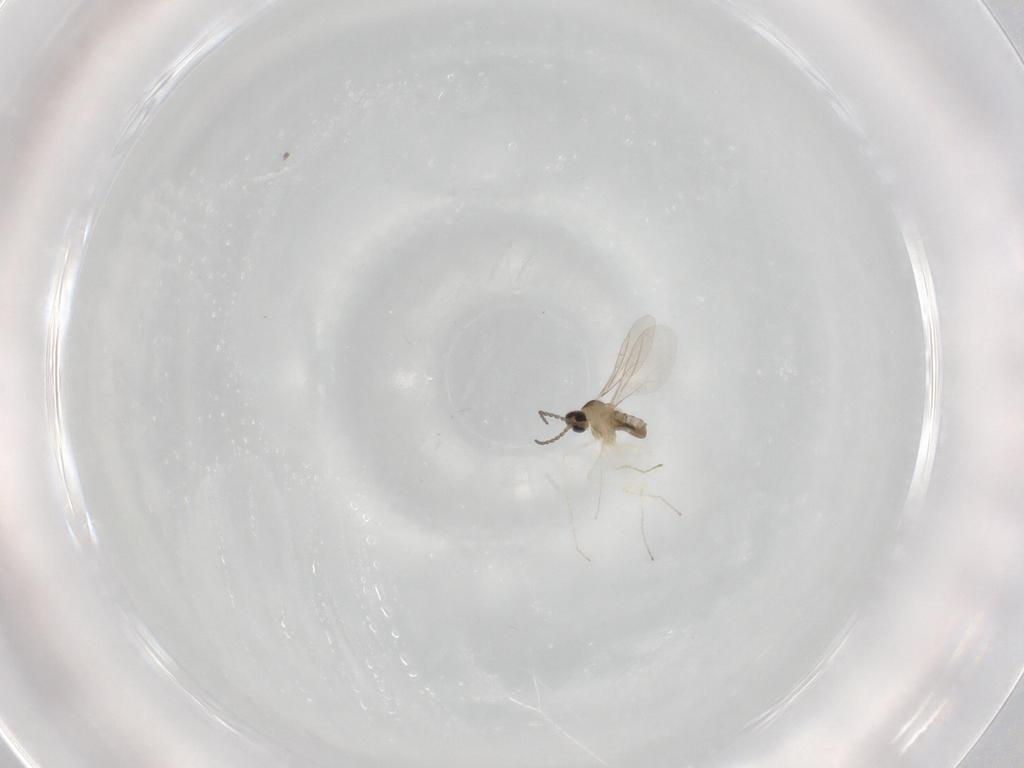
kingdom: Animalia
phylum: Arthropoda
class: Insecta
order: Diptera
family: Cecidomyiidae
